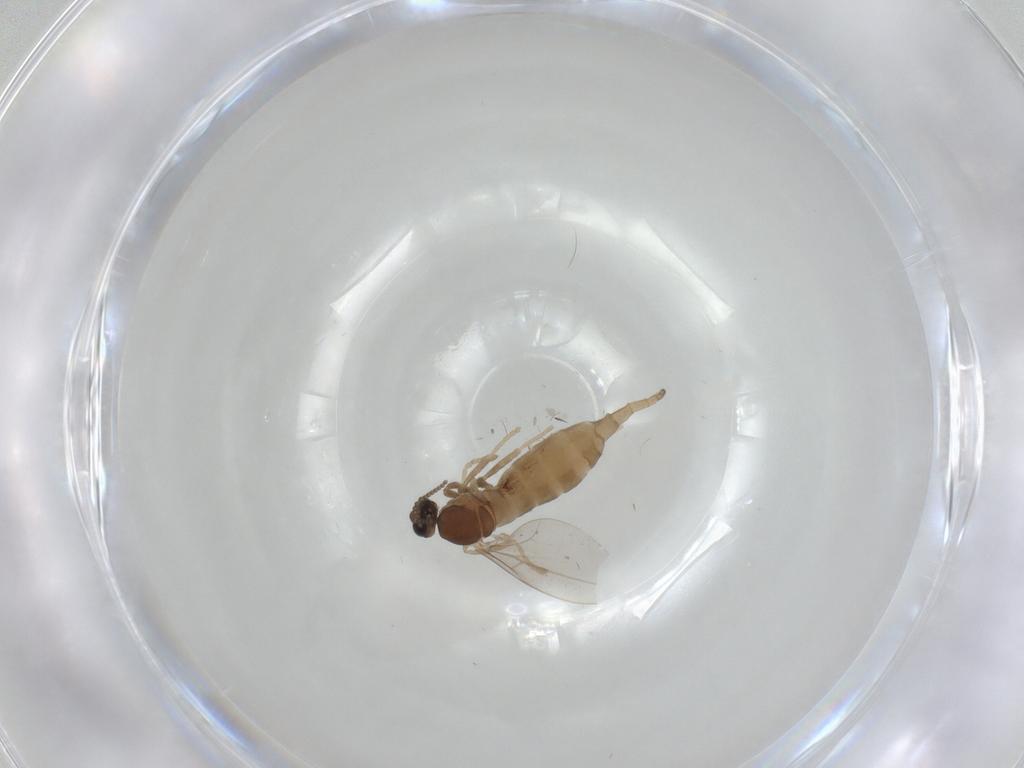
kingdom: Animalia
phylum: Arthropoda
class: Insecta
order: Diptera
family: Cecidomyiidae
